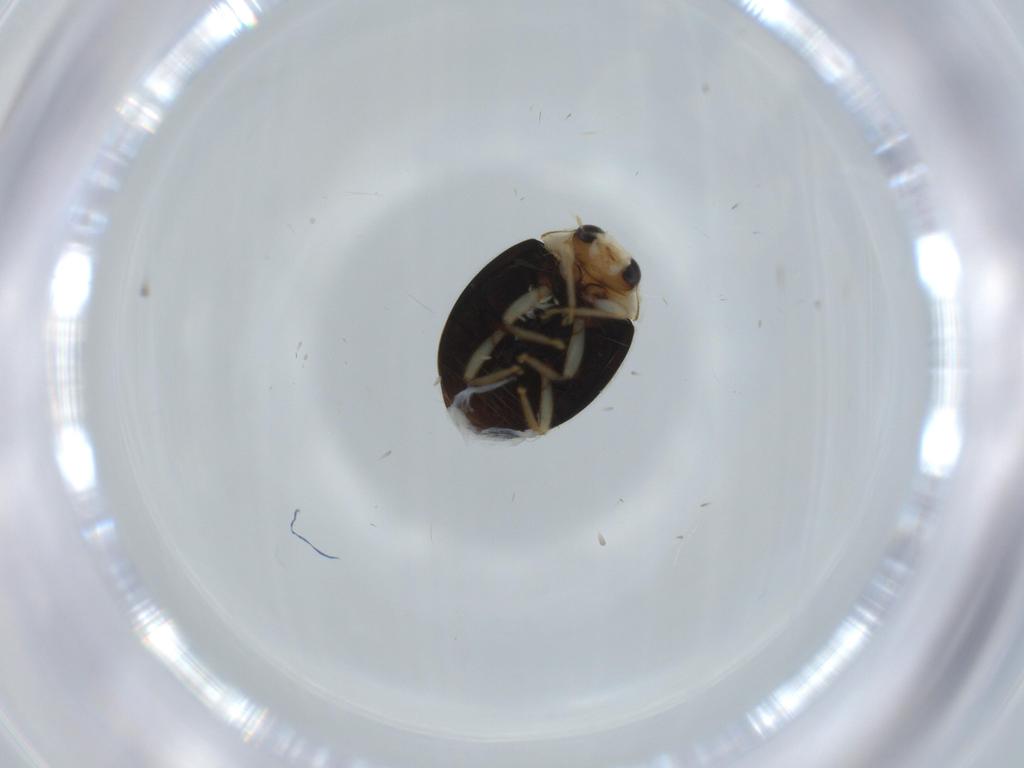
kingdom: Animalia
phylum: Arthropoda
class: Insecta
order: Coleoptera
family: Coccinellidae
